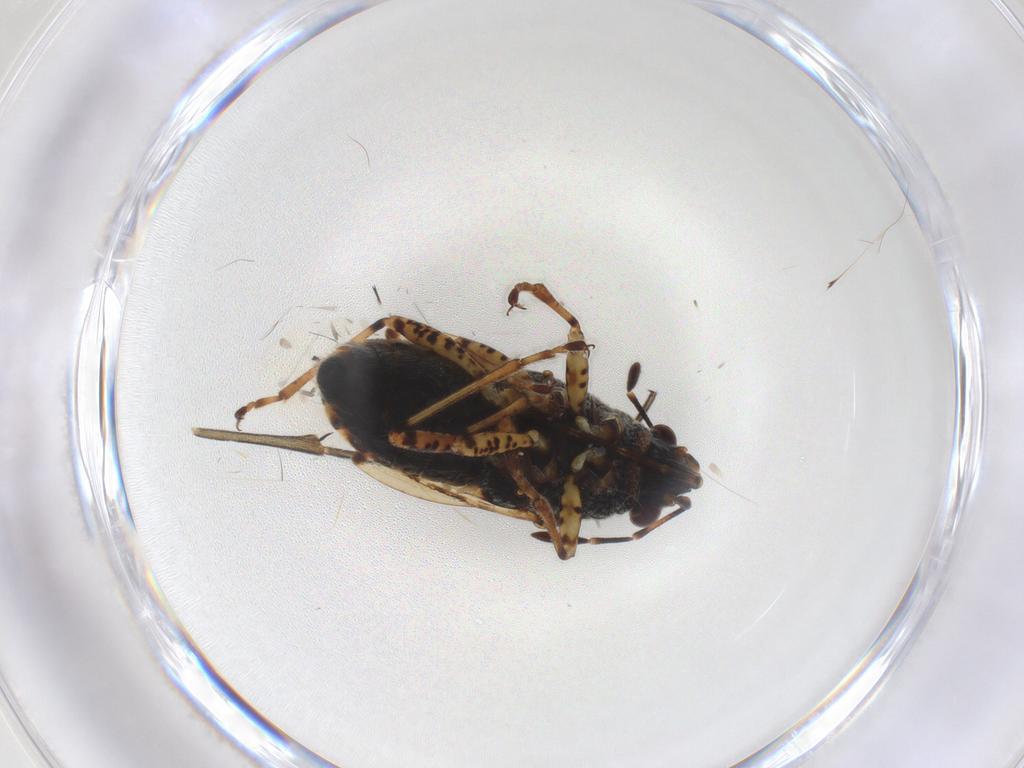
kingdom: Animalia
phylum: Arthropoda
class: Insecta
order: Hemiptera
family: Lygaeidae
